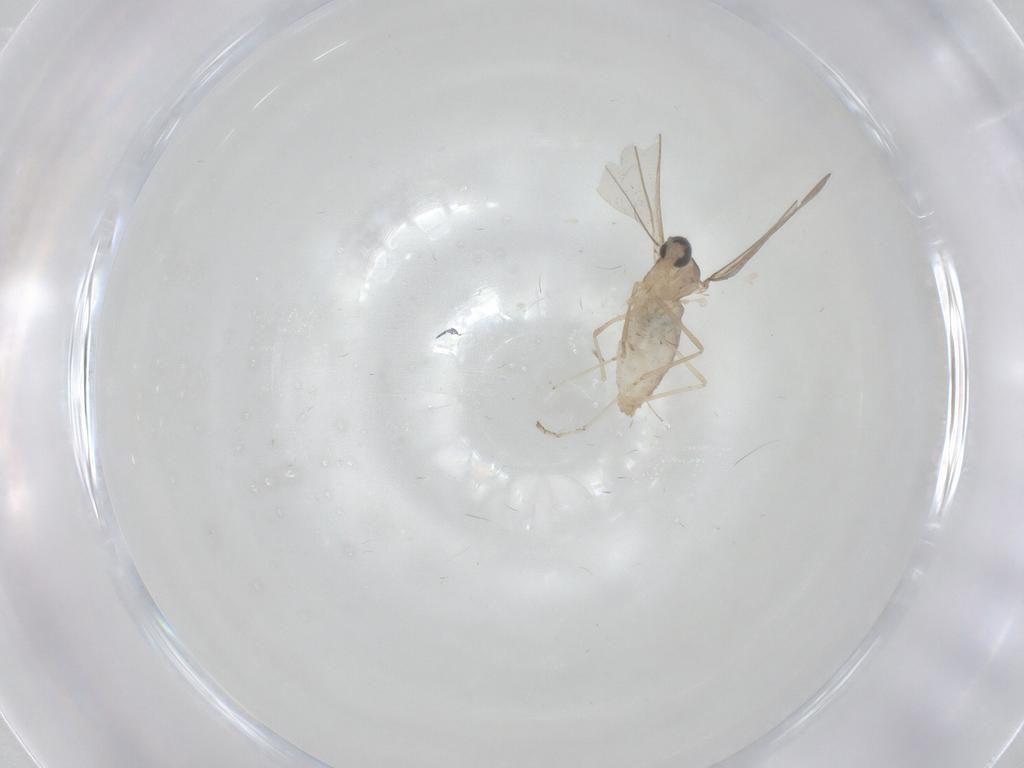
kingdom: Animalia
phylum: Arthropoda
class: Insecta
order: Diptera
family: Cecidomyiidae
